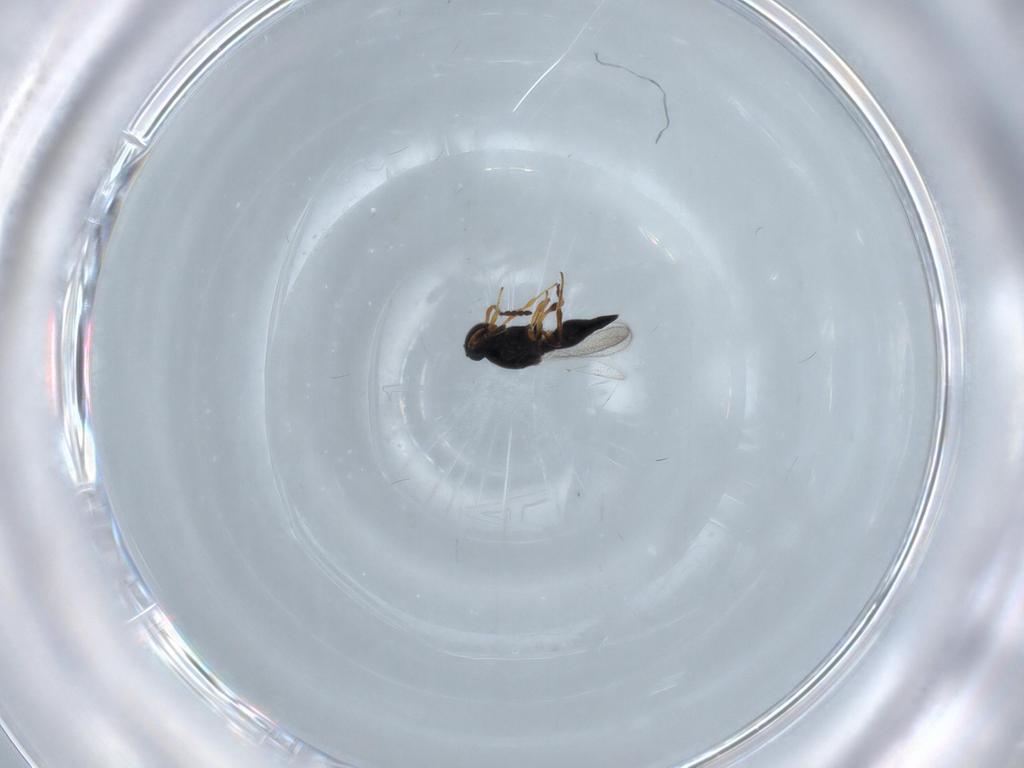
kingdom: Animalia
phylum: Arthropoda
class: Insecta
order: Hymenoptera
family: Platygastridae
